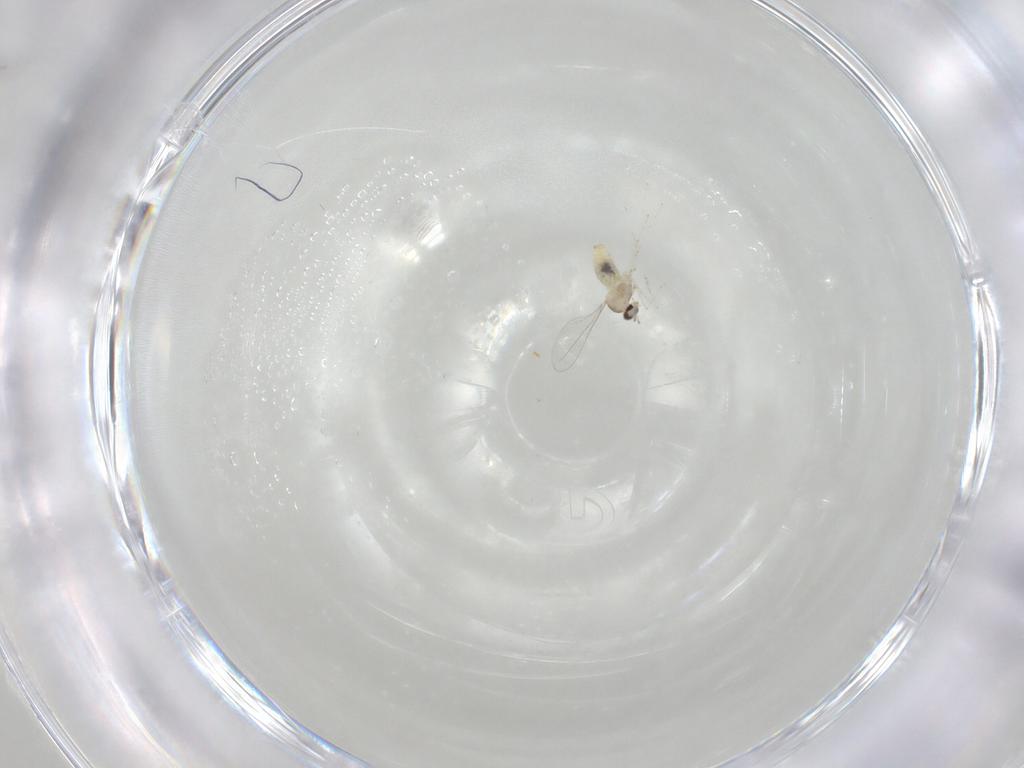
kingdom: Animalia
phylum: Arthropoda
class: Insecta
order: Diptera
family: Cecidomyiidae
